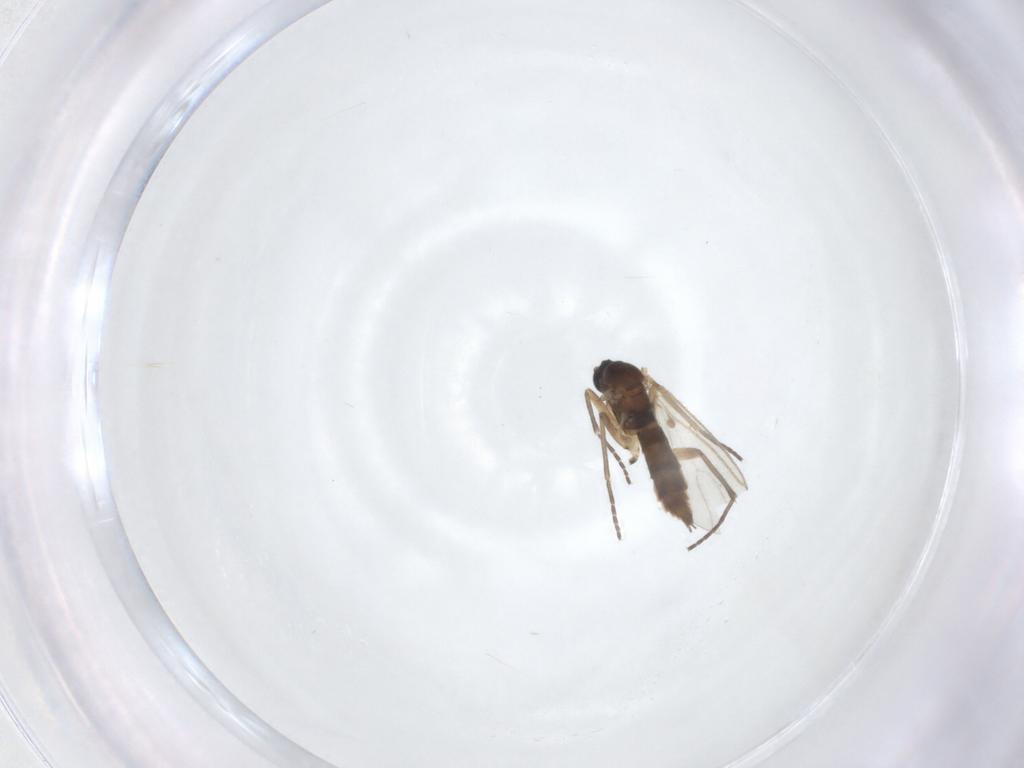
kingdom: Animalia
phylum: Arthropoda
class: Insecta
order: Diptera
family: Sciaridae
